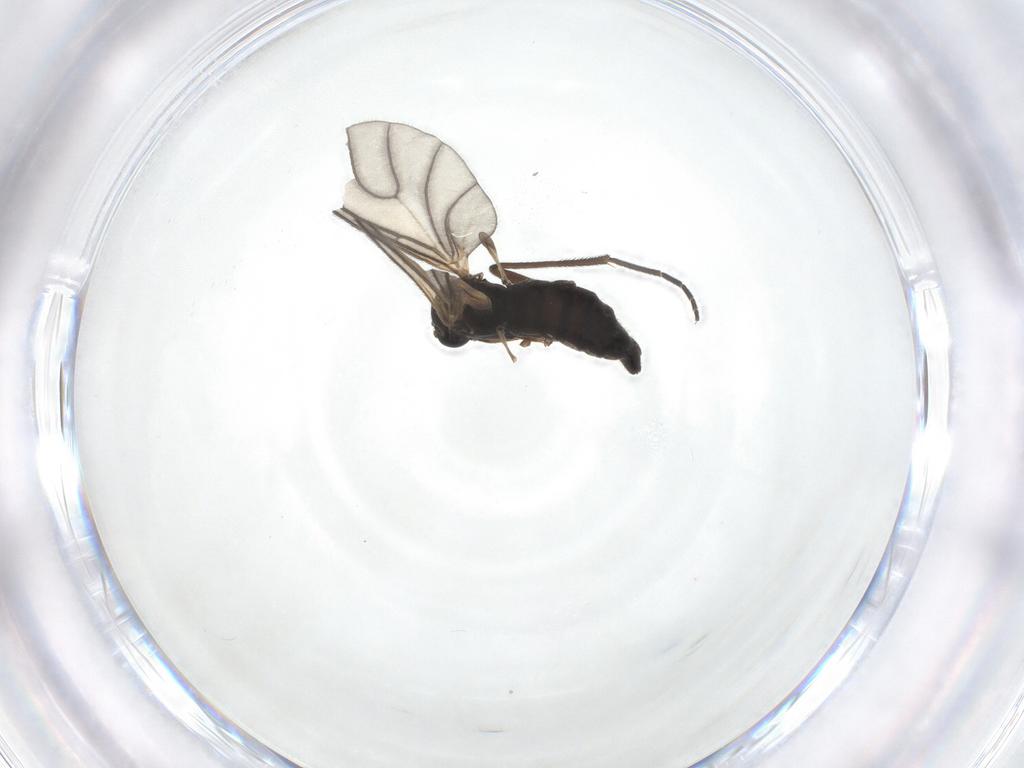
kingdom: Animalia
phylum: Arthropoda
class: Insecta
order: Diptera
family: Sciaridae
